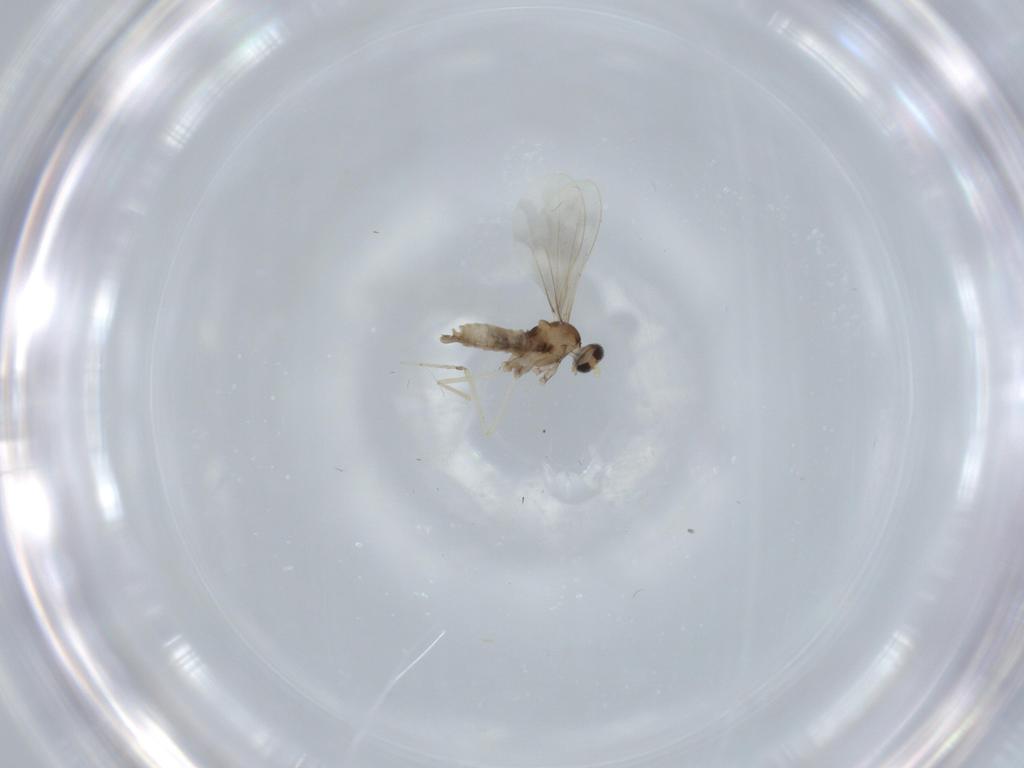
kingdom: Animalia
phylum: Arthropoda
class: Insecta
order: Diptera
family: Cecidomyiidae
